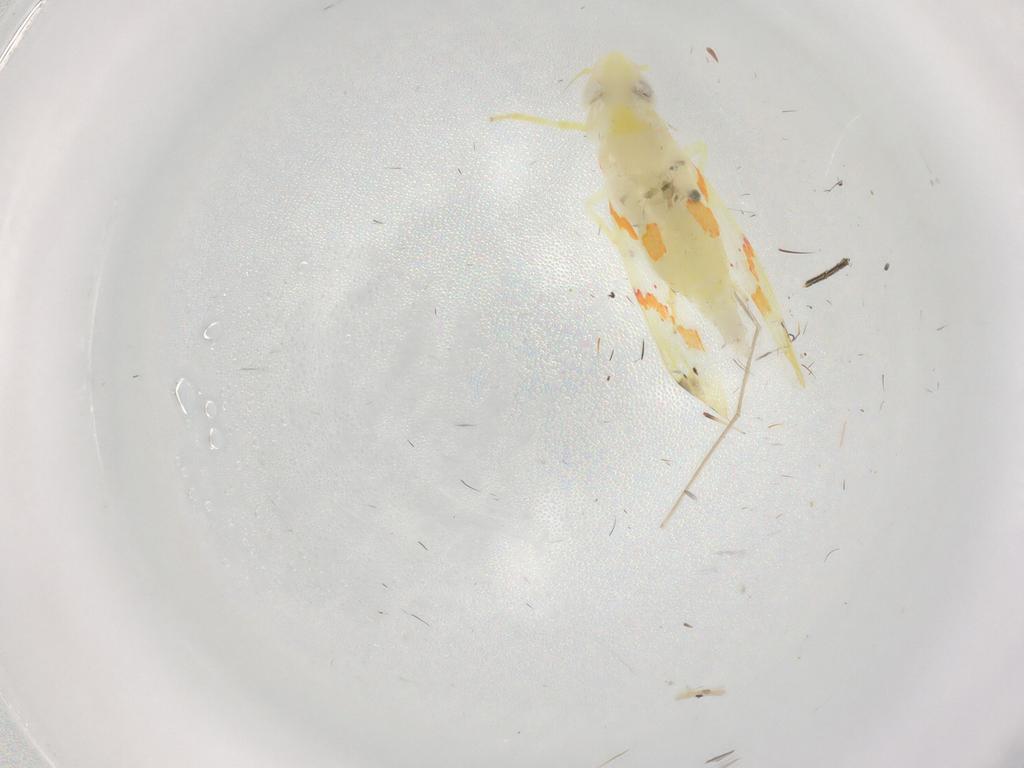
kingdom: Animalia
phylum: Arthropoda
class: Insecta
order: Hemiptera
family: Cicadellidae
